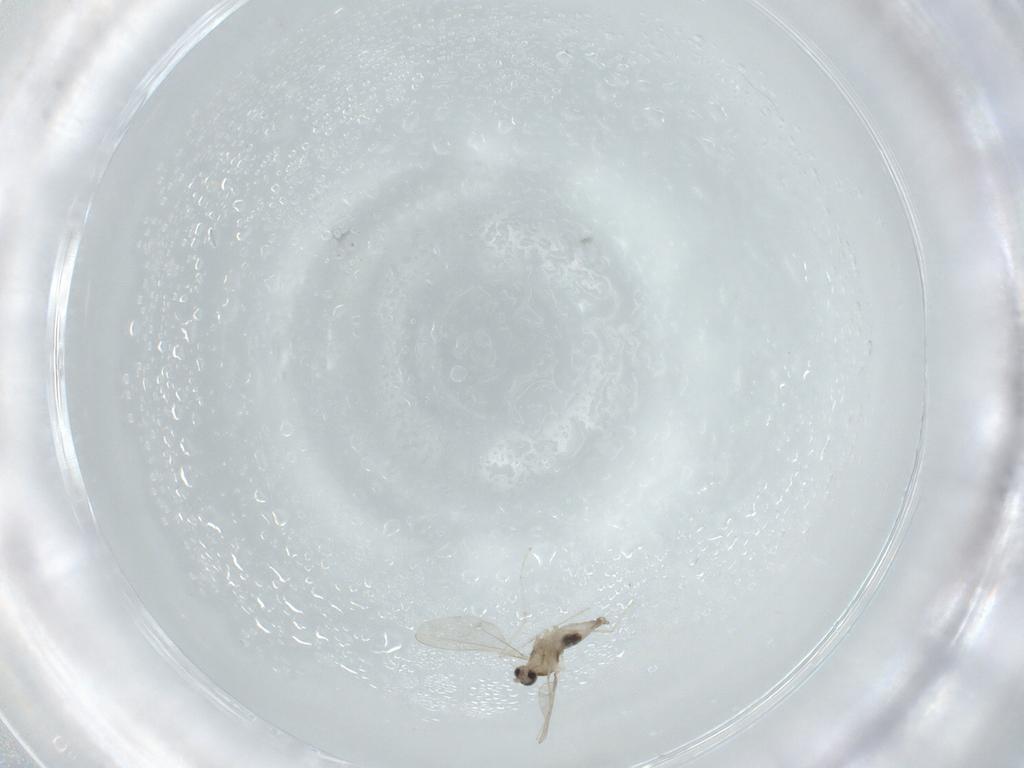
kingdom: Animalia
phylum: Arthropoda
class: Insecta
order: Diptera
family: Cecidomyiidae
